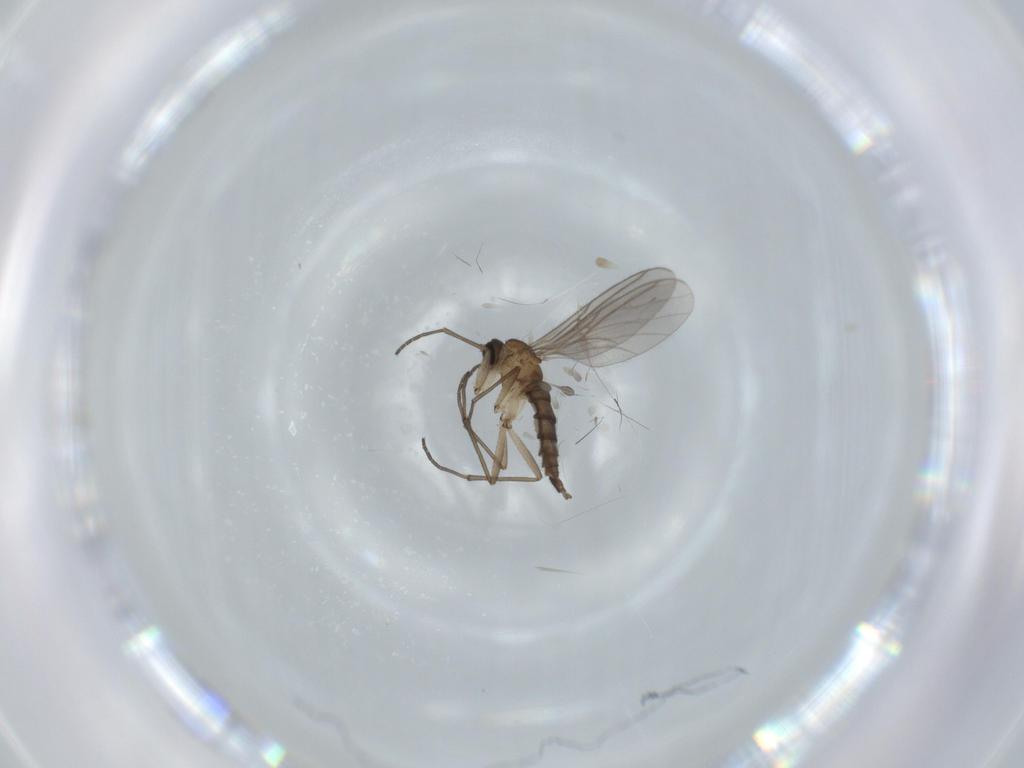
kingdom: Animalia
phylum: Arthropoda
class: Insecta
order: Diptera
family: Sciaridae
